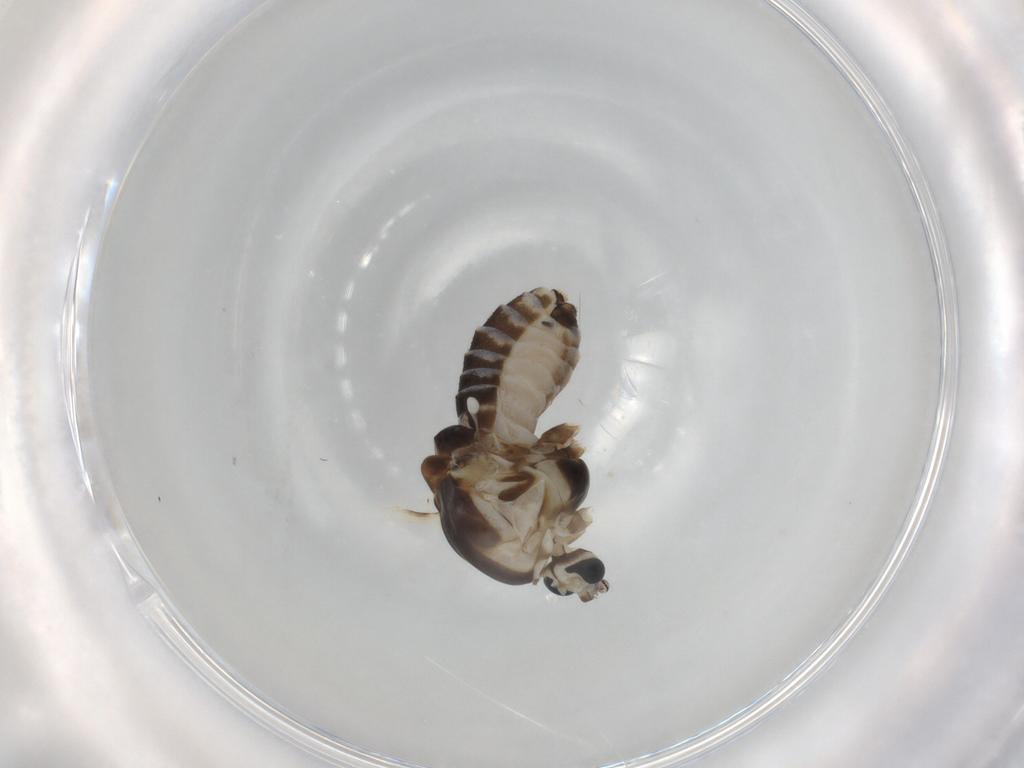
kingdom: Animalia
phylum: Arthropoda
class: Insecta
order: Diptera
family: Chironomidae
